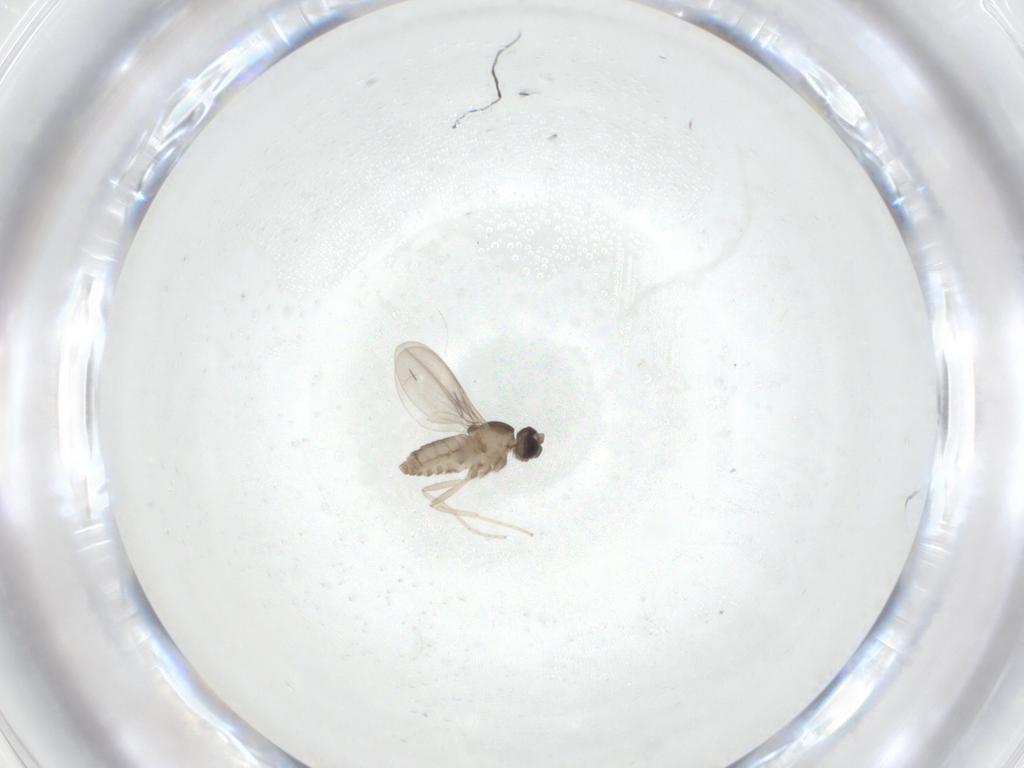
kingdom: Animalia
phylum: Arthropoda
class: Insecta
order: Diptera
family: Cecidomyiidae
